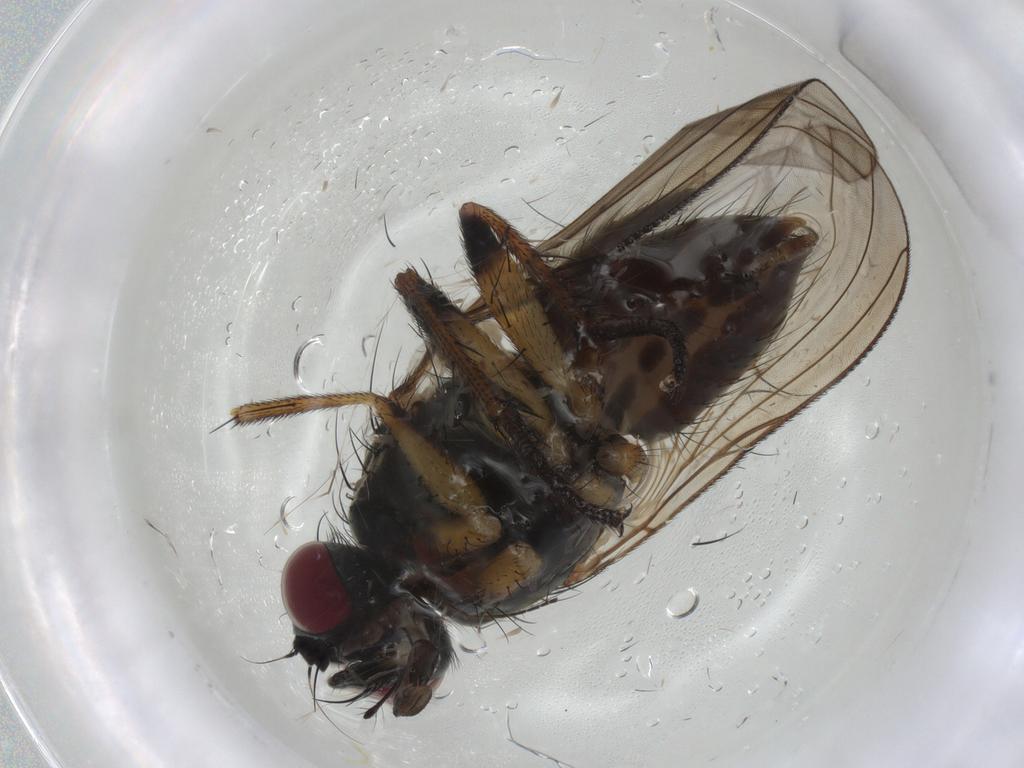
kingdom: Animalia
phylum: Arthropoda
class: Insecta
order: Diptera
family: Muscidae
